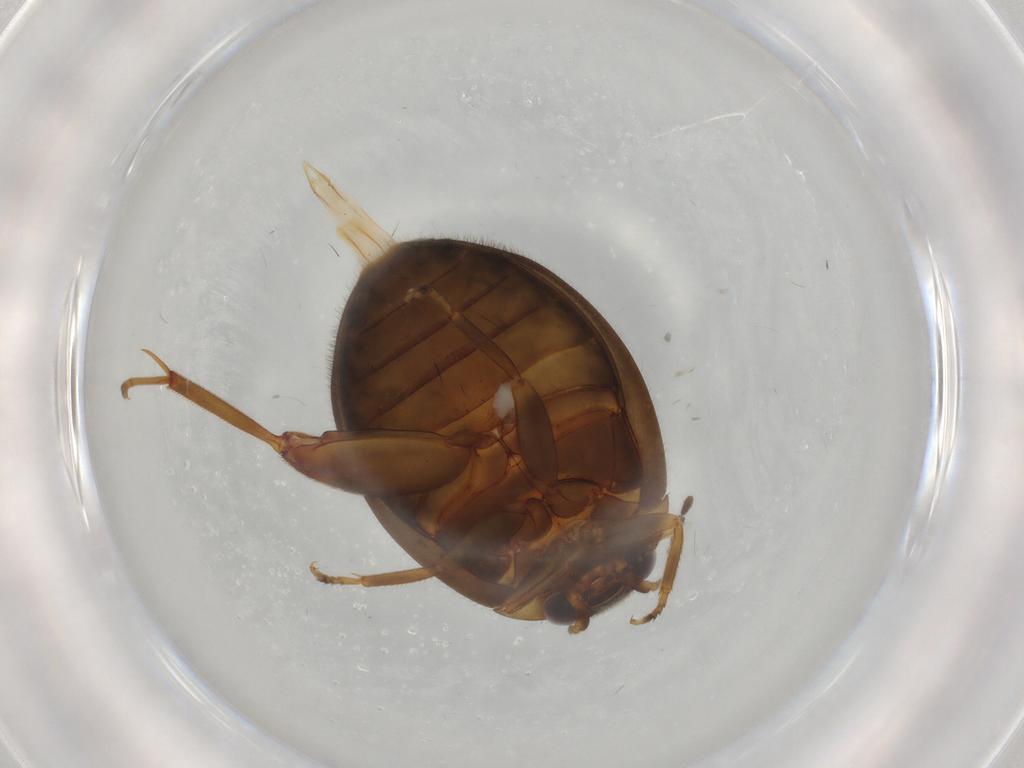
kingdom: Animalia
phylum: Arthropoda
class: Insecta
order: Coleoptera
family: Scirtidae
